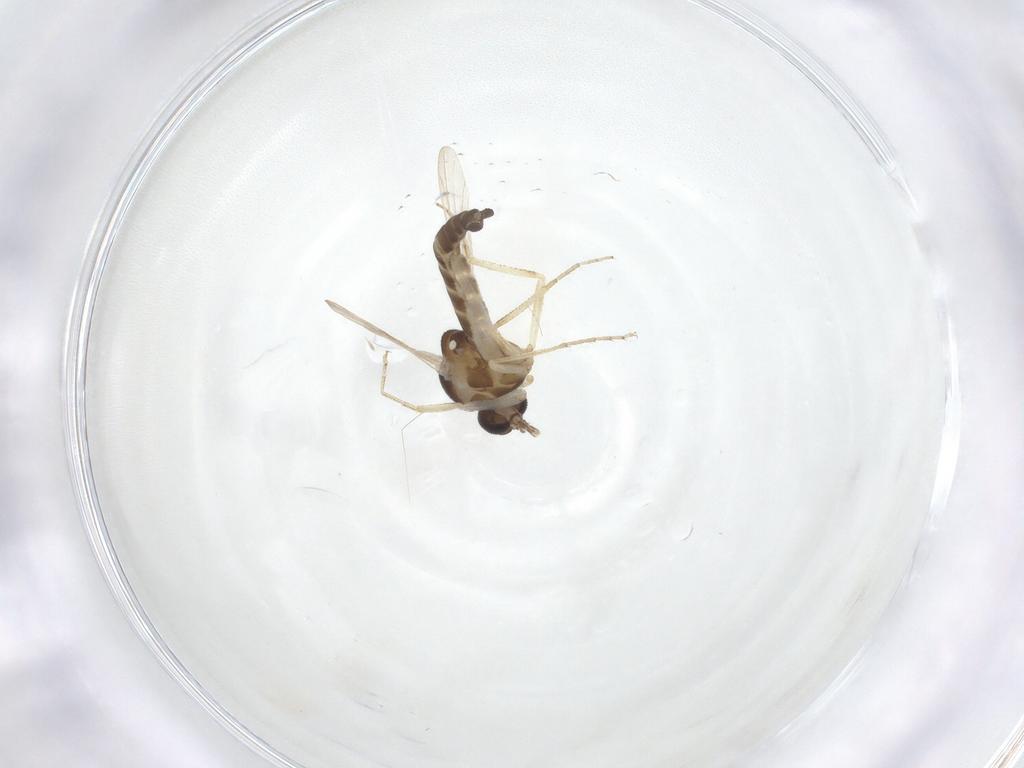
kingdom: Animalia
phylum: Arthropoda
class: Insecta
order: Diptera
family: Ceratopogonidae
